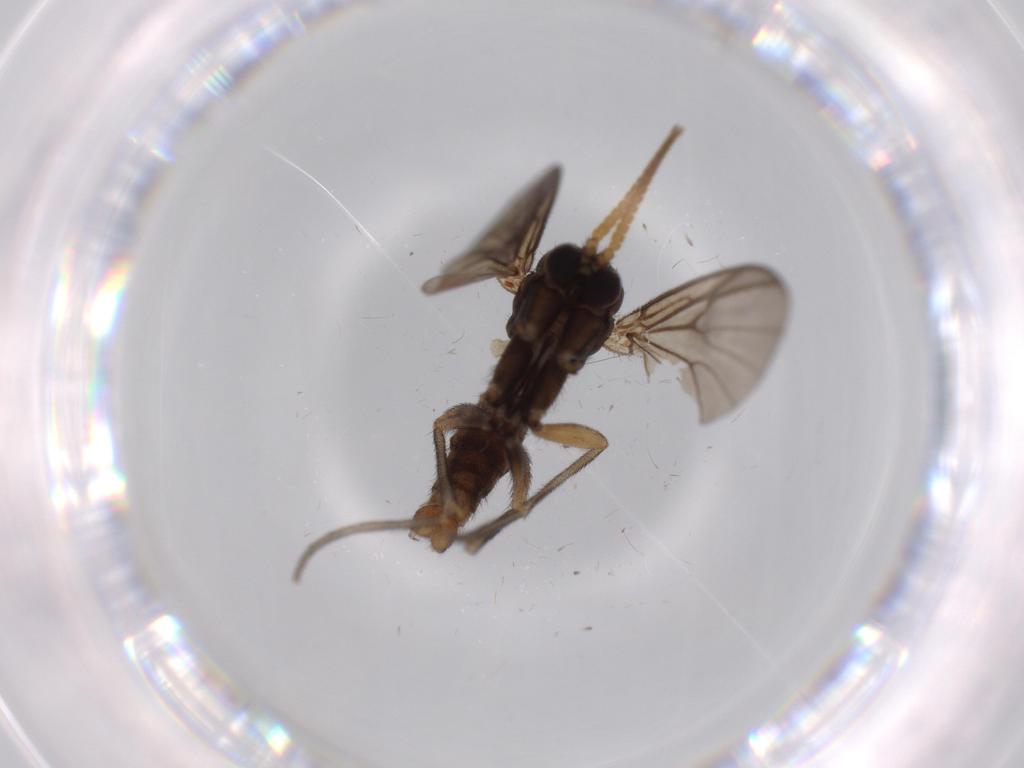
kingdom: Animalia
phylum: Arthropoda
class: Insecta
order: Diptera
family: Mycetophilidae
